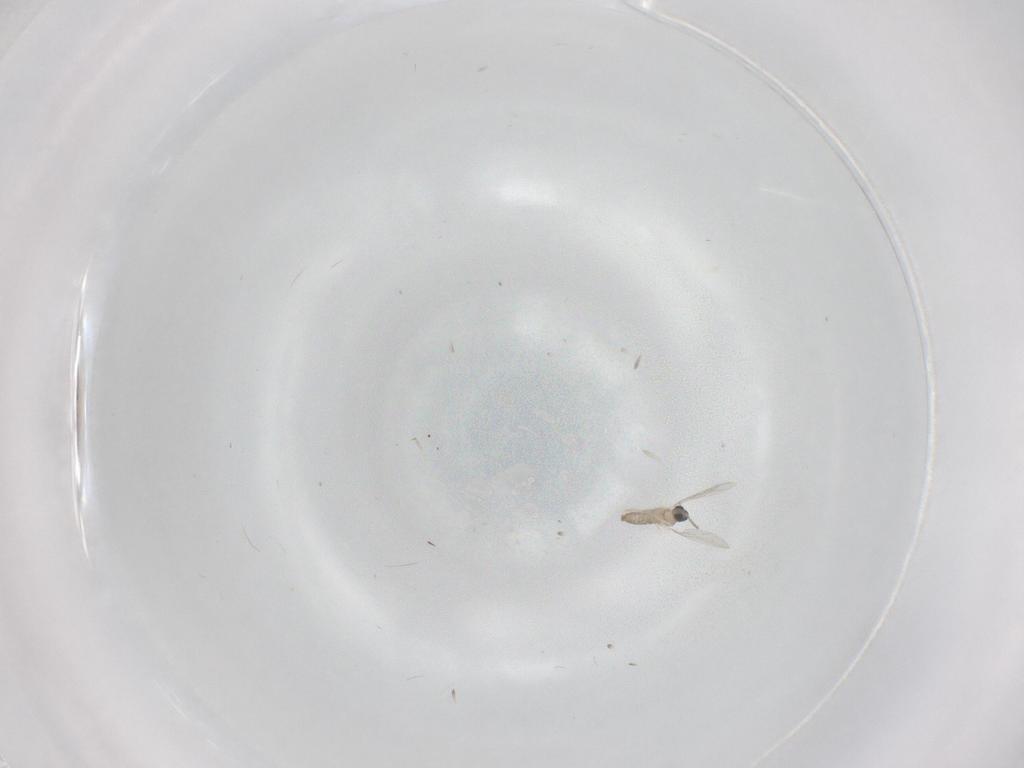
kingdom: Animalia
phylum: Arthropoda
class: Insecta
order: Diptera
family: Cecidomyiidae
